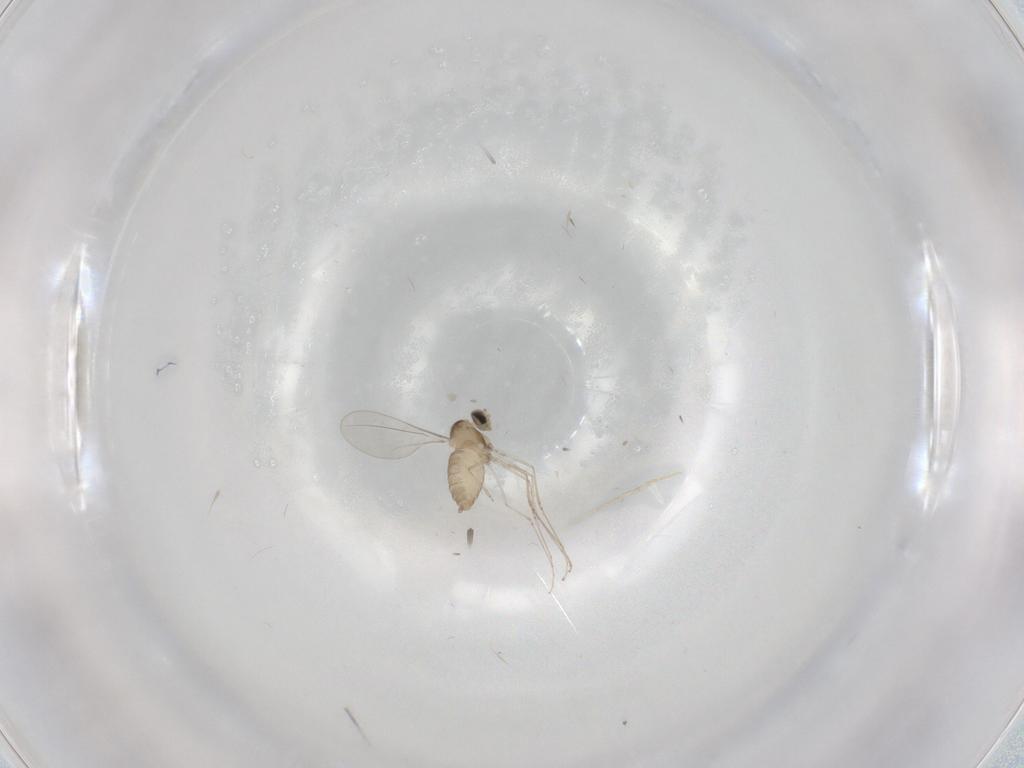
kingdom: Animalia
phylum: Arthropoda
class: Insecta
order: Diptera
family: Cecidomyiidae
